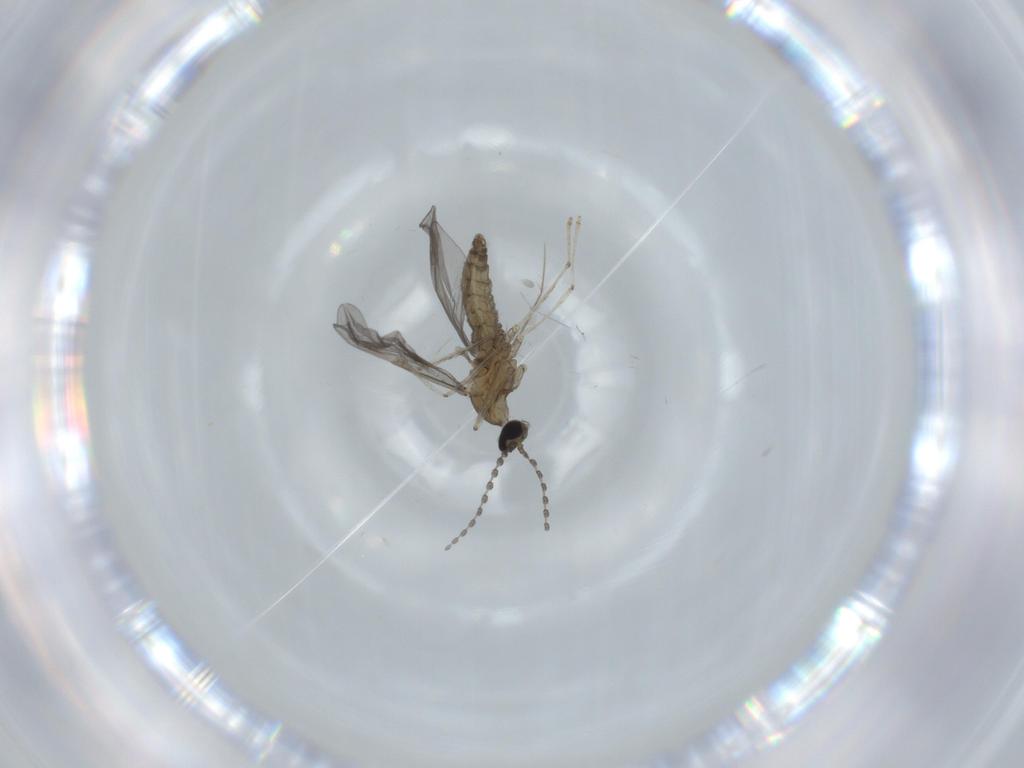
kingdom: Animalia
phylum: Arthropoda
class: Insecta
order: Diptera
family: Cecidomyiidae
